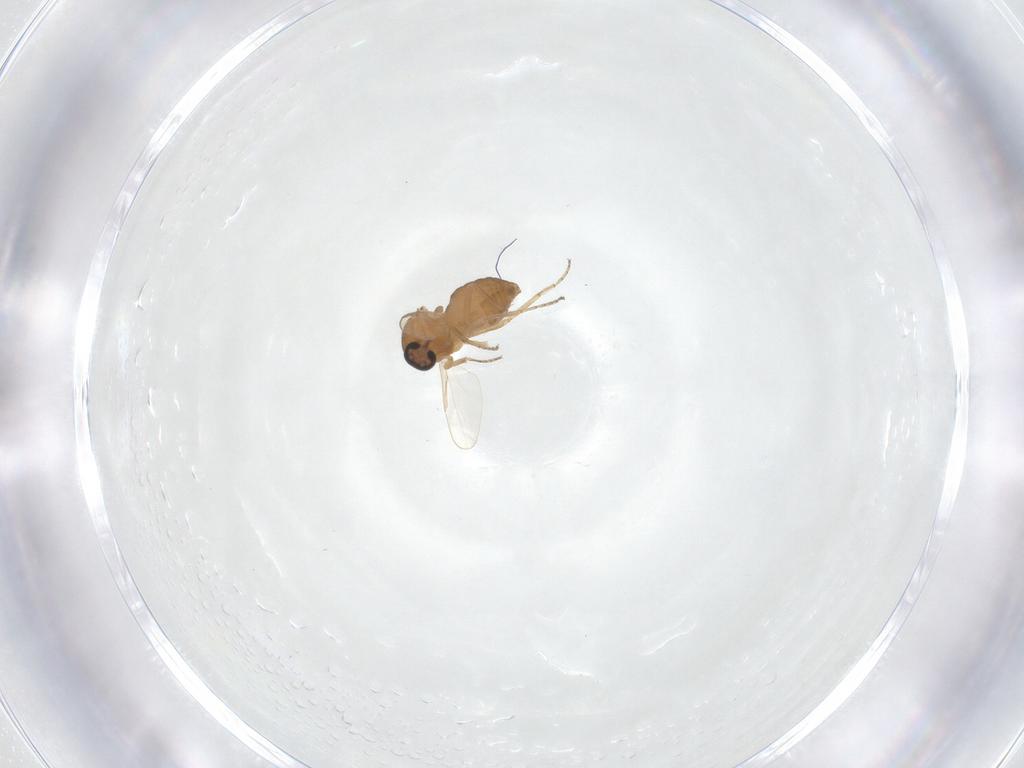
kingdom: Animalia
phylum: Arthropoda
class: Insecta
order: Diptera
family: Ceratopogonidae
